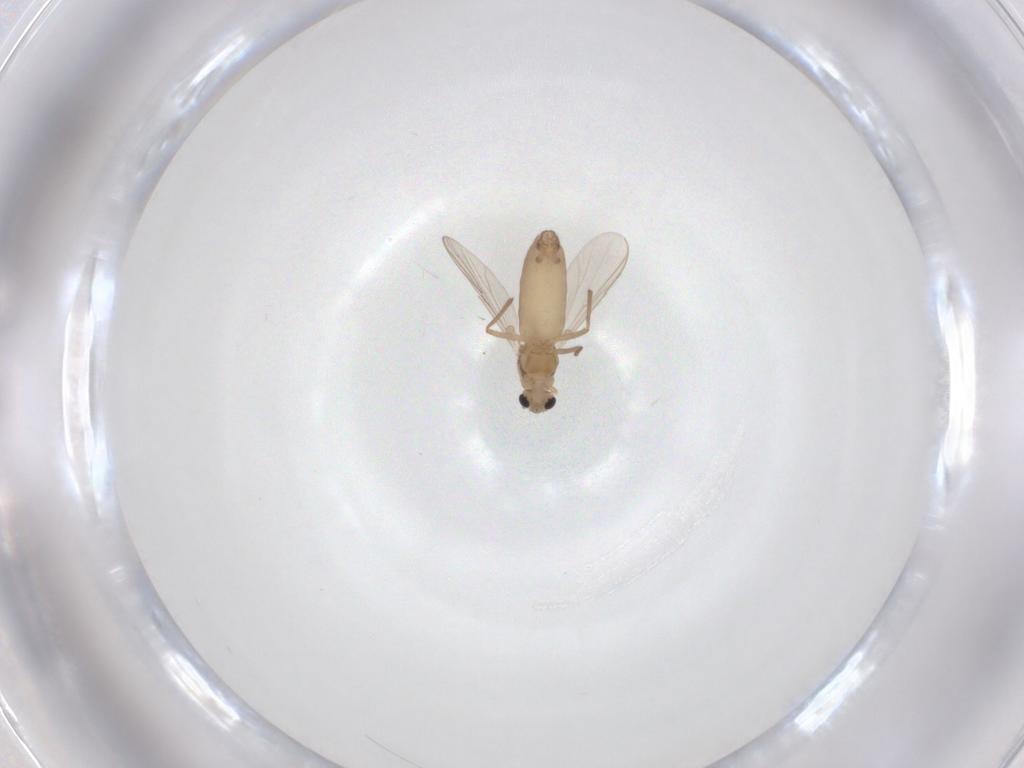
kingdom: Animalia
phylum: Arthropoda
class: Insecta
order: Diptera
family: Chironomidae
